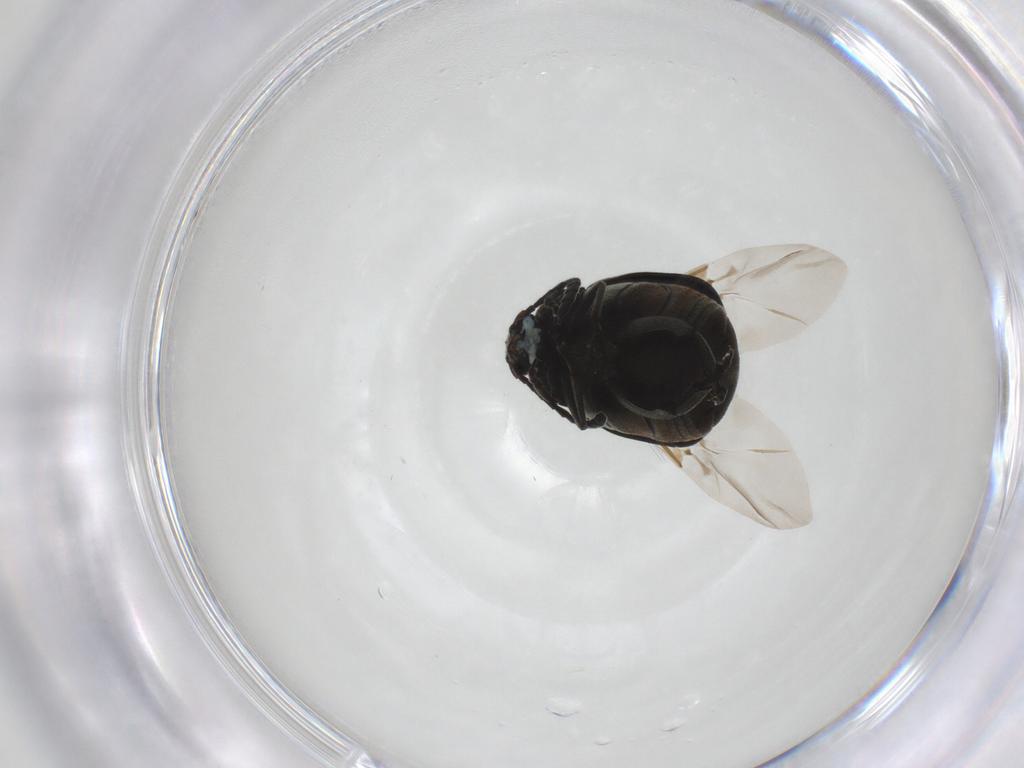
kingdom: Animalia
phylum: Arthropoda
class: Insecta
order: Coleoptera
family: Chrysomelidae
